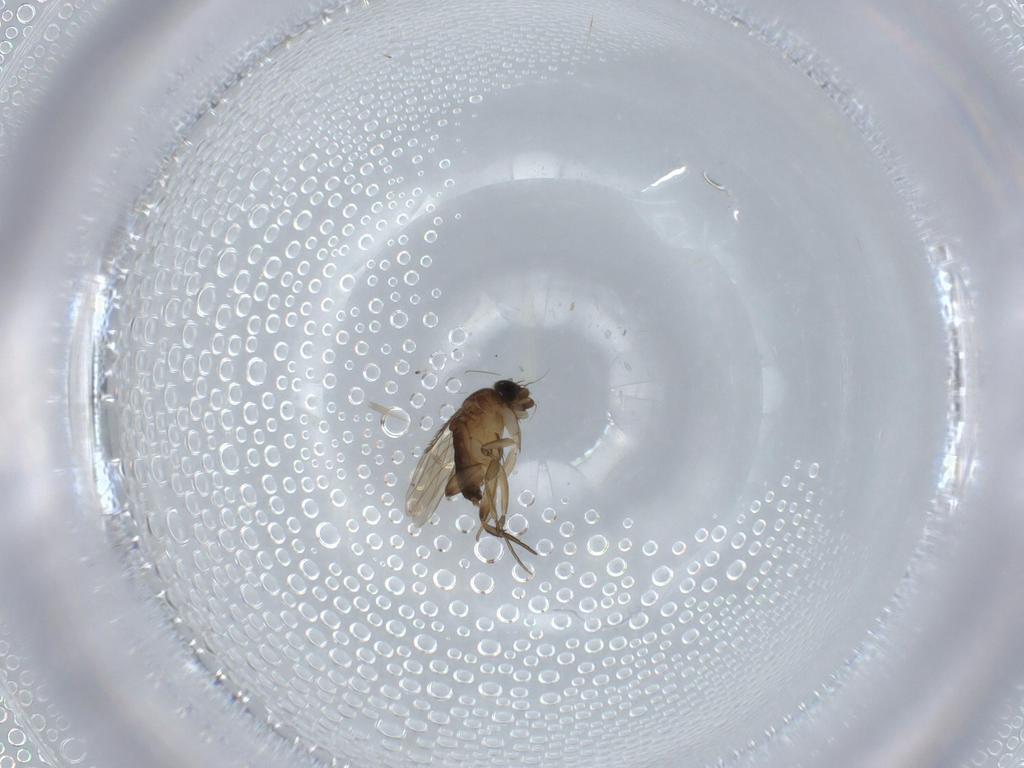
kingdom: Animalia
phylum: Arthropoda
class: Insecta
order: Diptera
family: Phoridae
